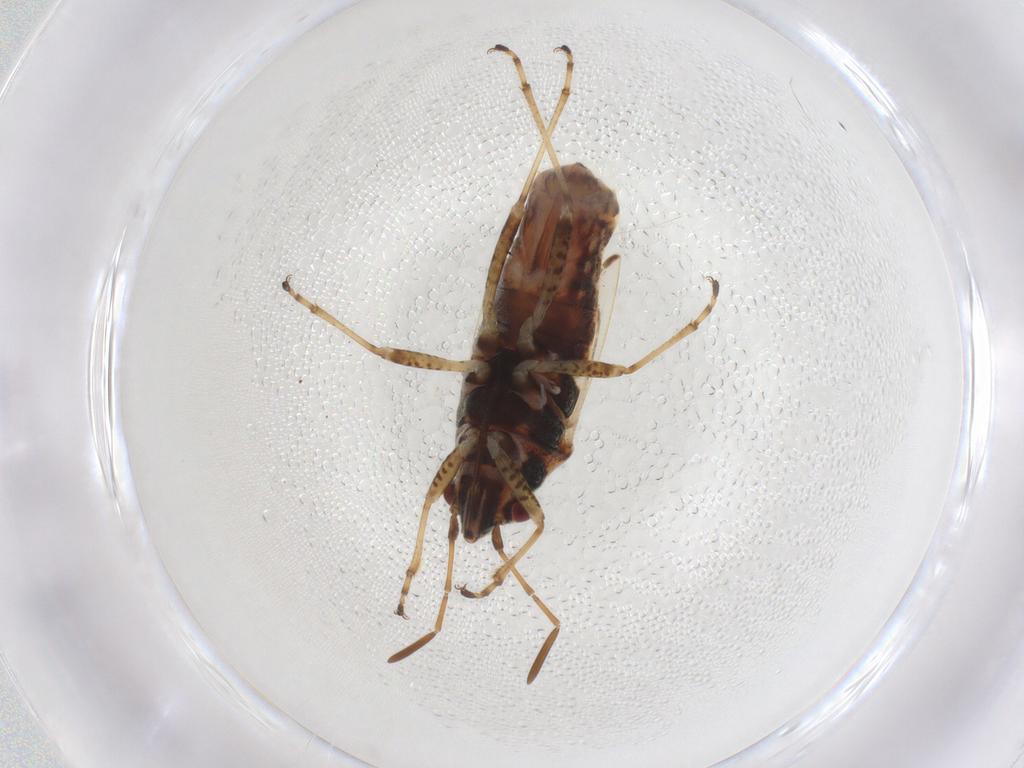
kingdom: Animalia
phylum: Arthropoda
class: Insecta
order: Hemiptera
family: Lygaeidae
